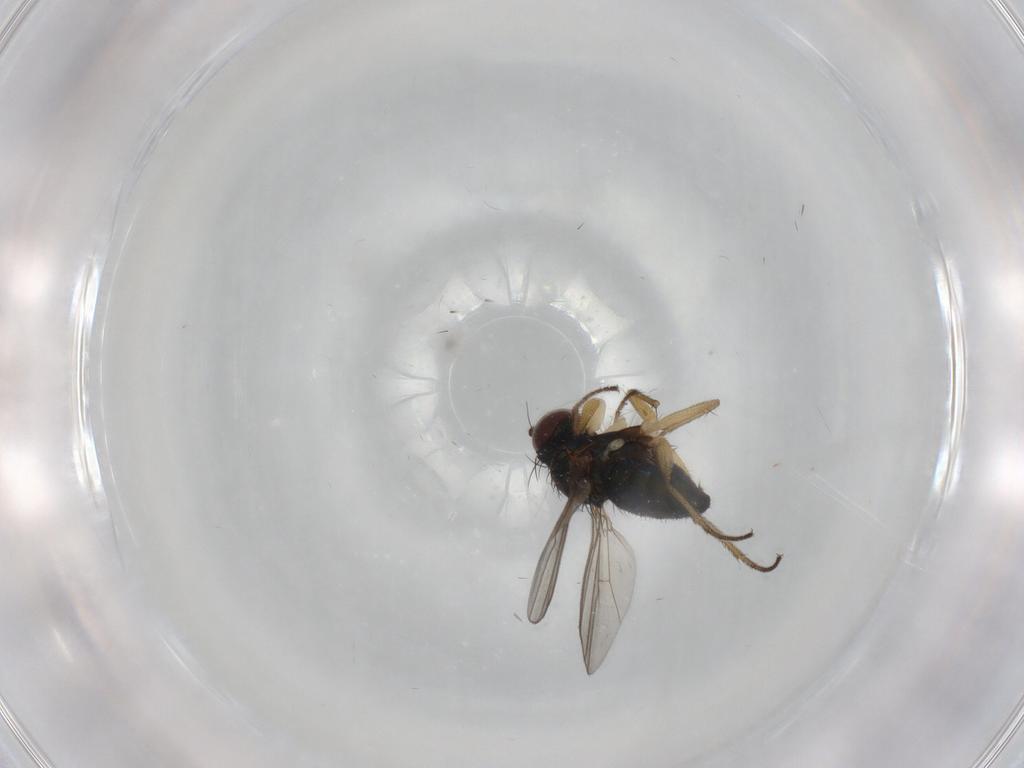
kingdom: Animalia
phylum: Arthropoda
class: Insecta
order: Diptera
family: Dolichopodidae
